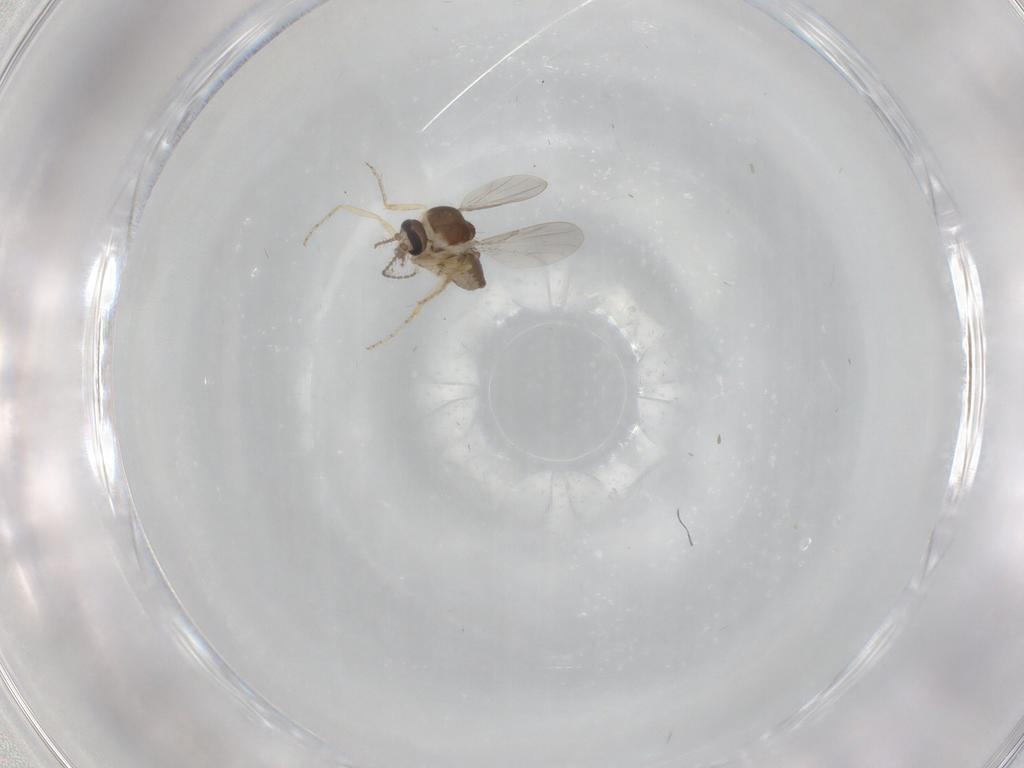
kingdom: Animalia
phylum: Arthropoda
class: Insecta
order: Diptera
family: Ceratopogonidae
